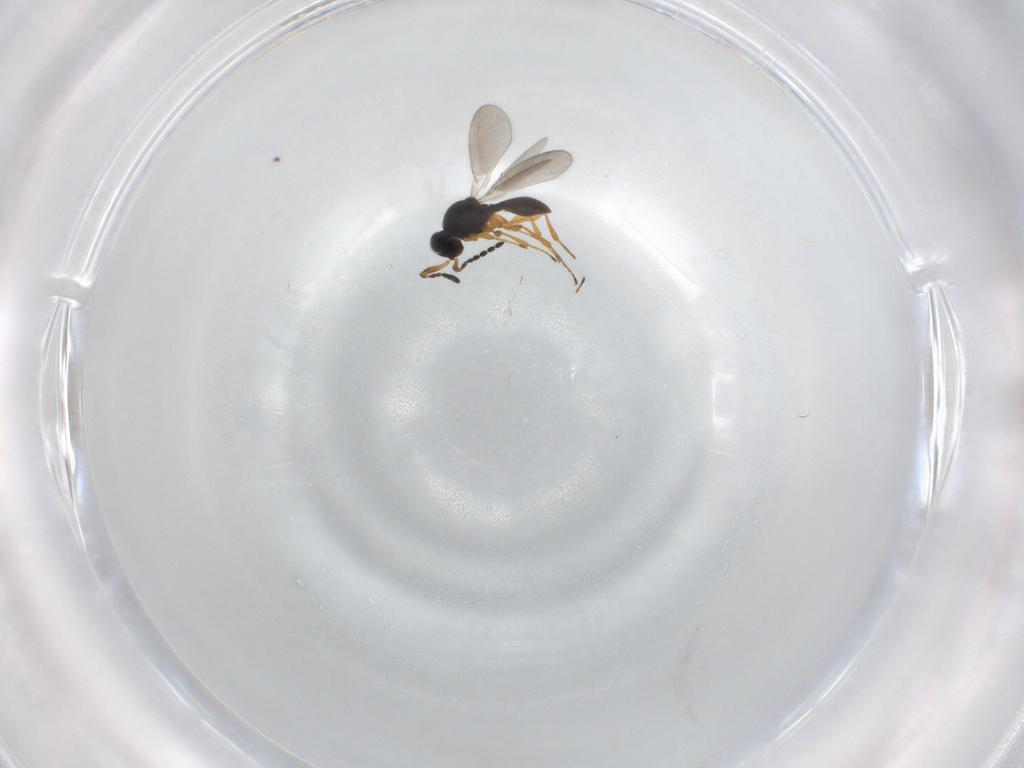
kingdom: Animalia
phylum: Arthropoda
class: Insecta
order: Hymenoptera
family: Platygastridae
